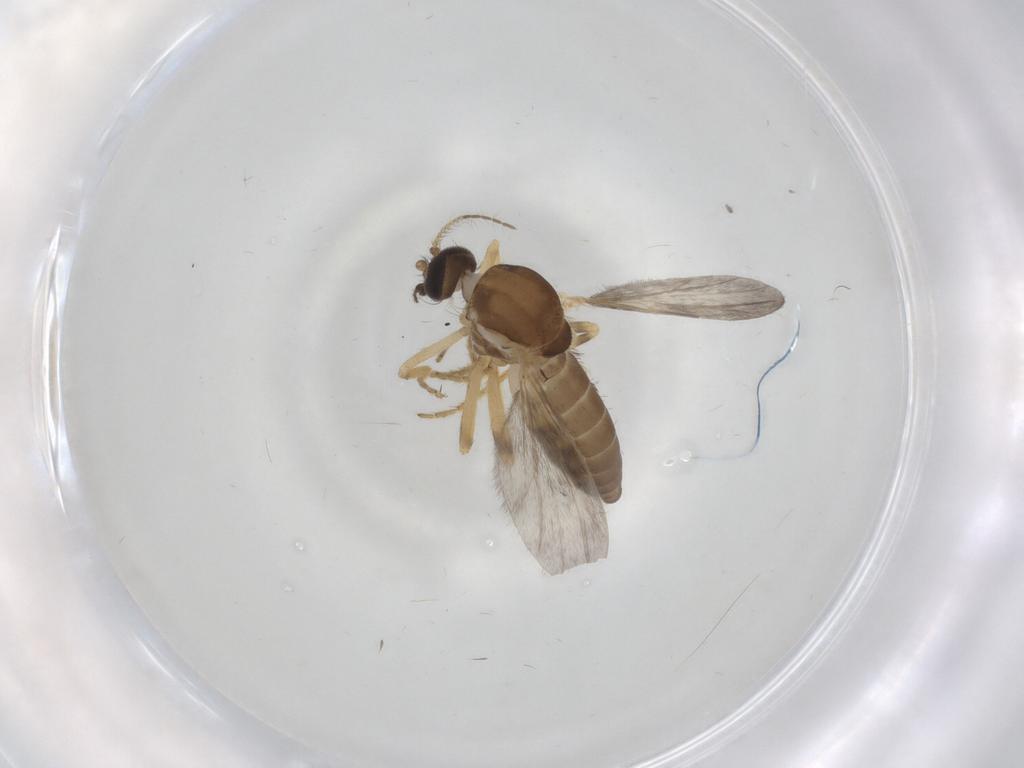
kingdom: Animalia
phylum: Arthropoda
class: Insecta
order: Diptera
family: Ceratopogonidae
